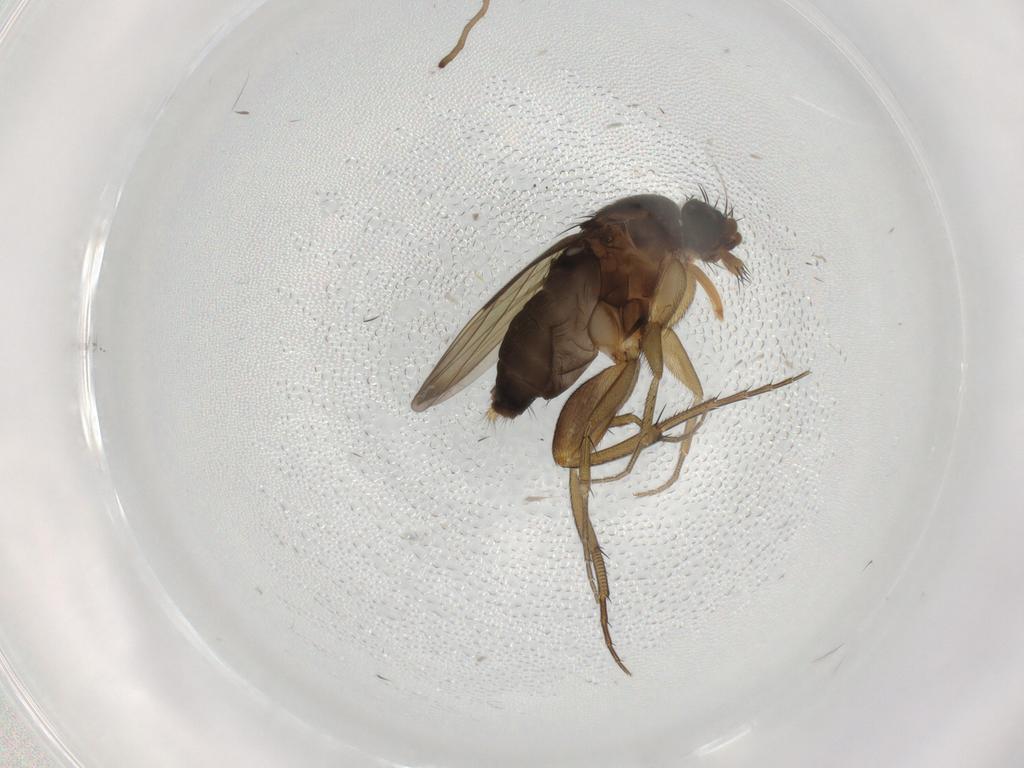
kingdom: Animalia
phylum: Arthropoda
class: Insecta
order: Diptera
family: Phoridae
